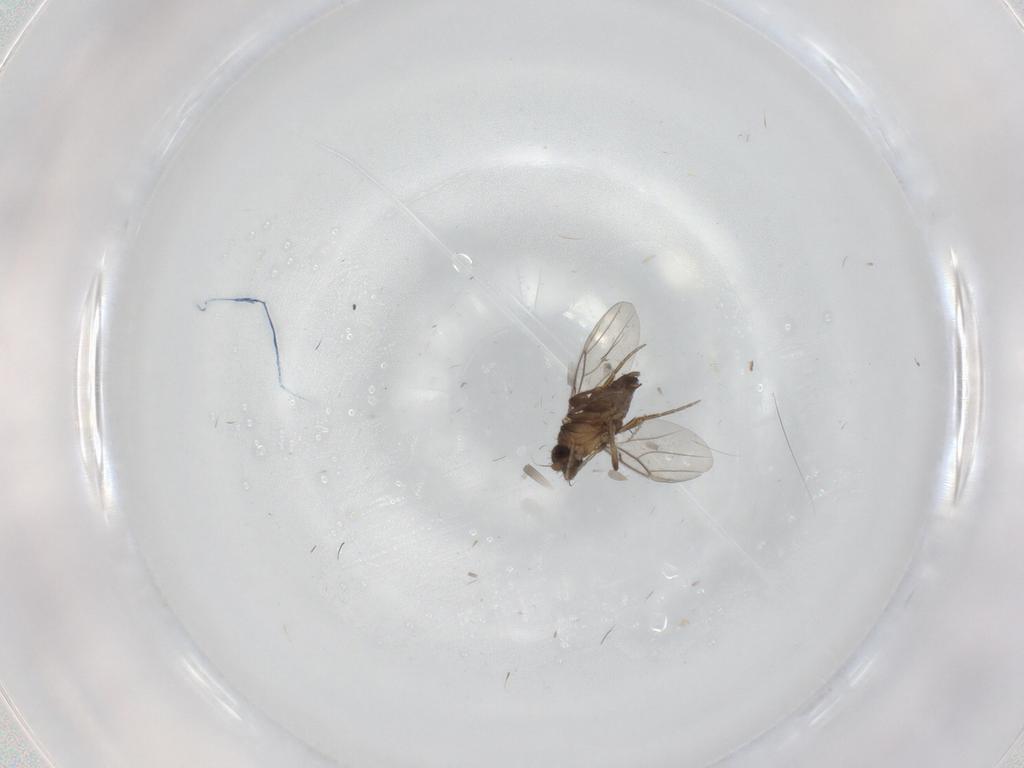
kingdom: Animalia
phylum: Arthropoda
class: Insecta
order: Diptera
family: Phoridae
